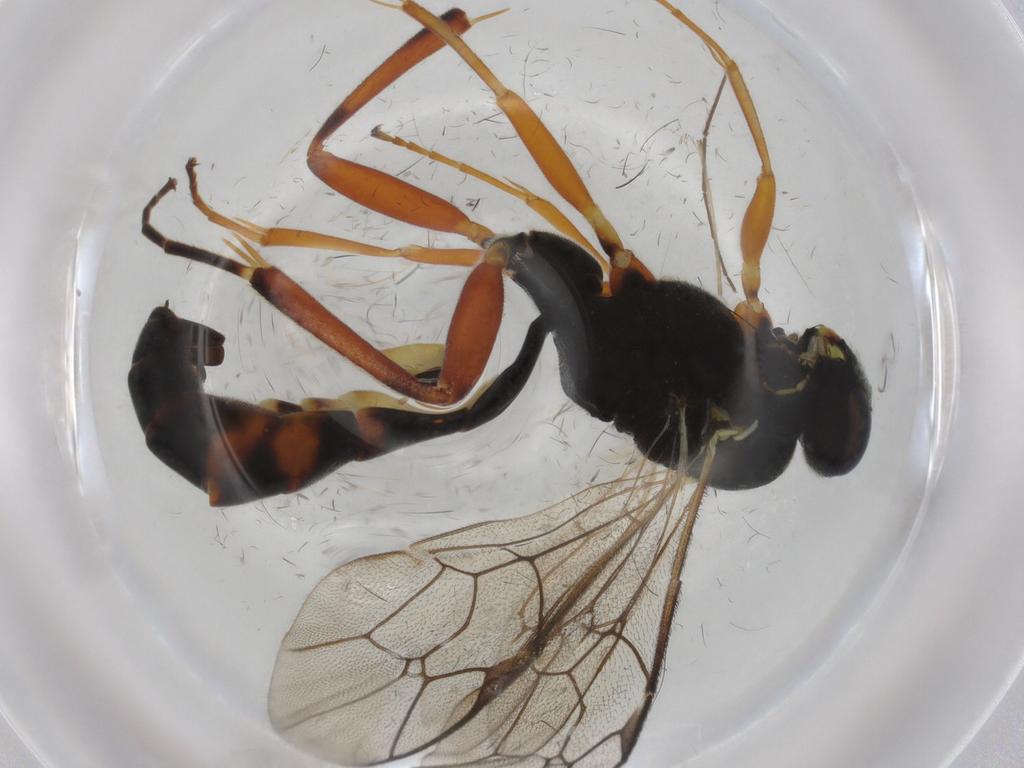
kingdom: Animalia
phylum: Arthropoda
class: Insecta
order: Hymenoptera
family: Ichneumonidae
